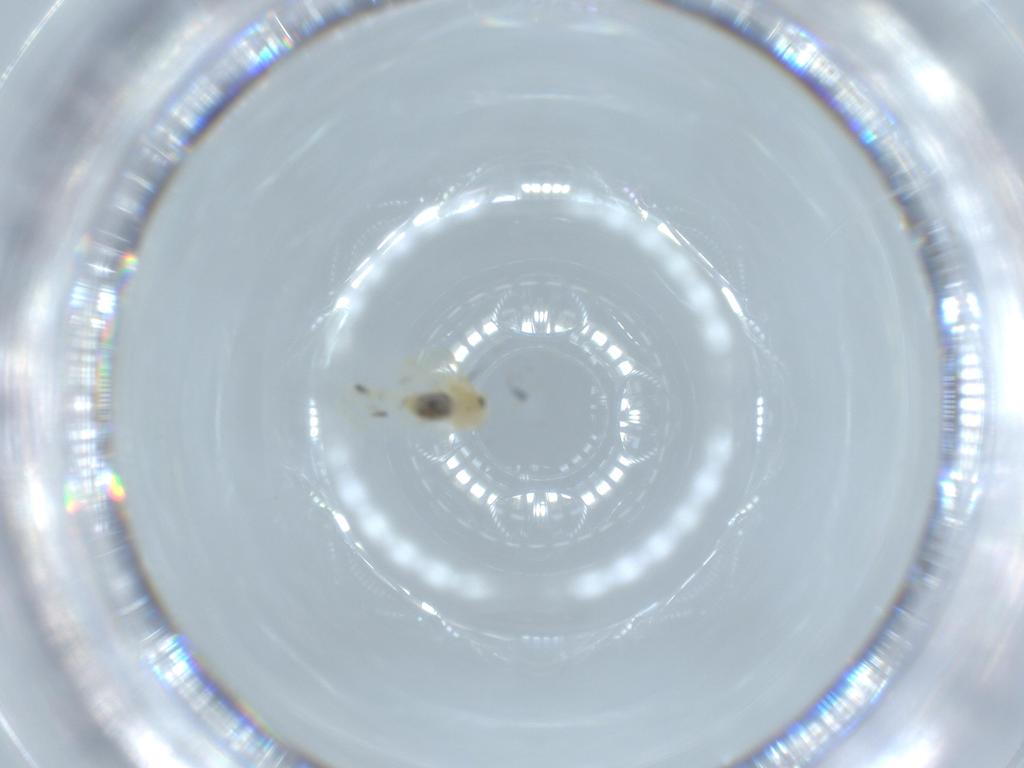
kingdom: Animalia
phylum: Arthropoda
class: Insecta
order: Hemiptera
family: Aleyrodidae
